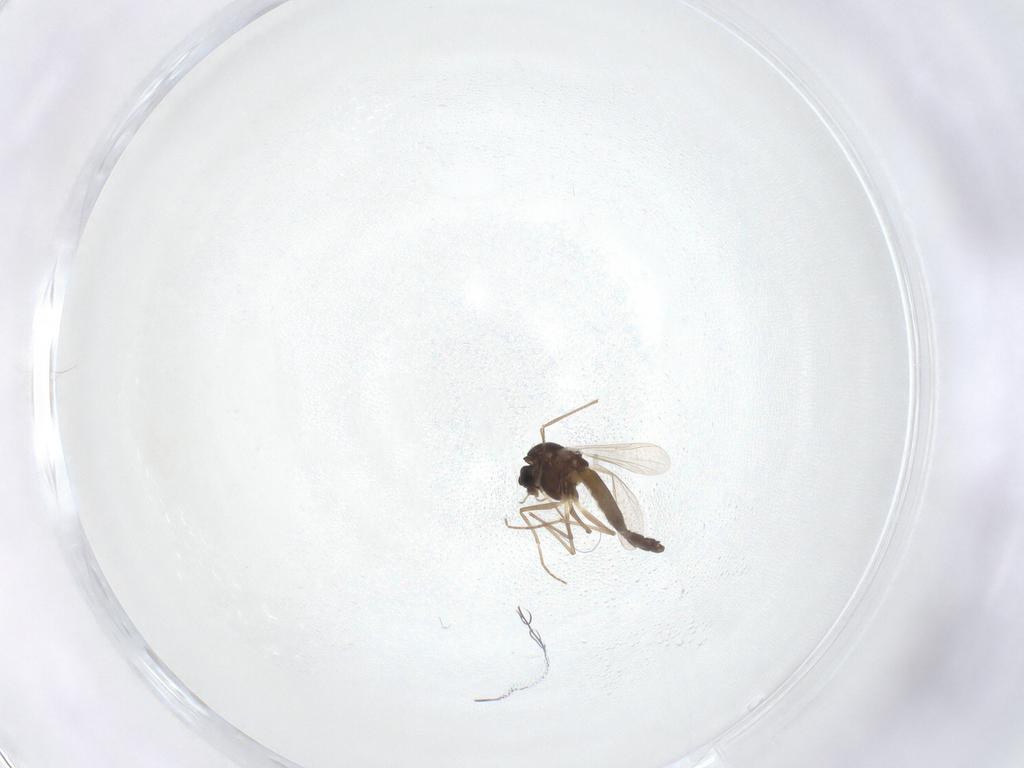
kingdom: Animalia
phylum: Arthropoda
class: Insecta
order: Diptera
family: Chironomidae
